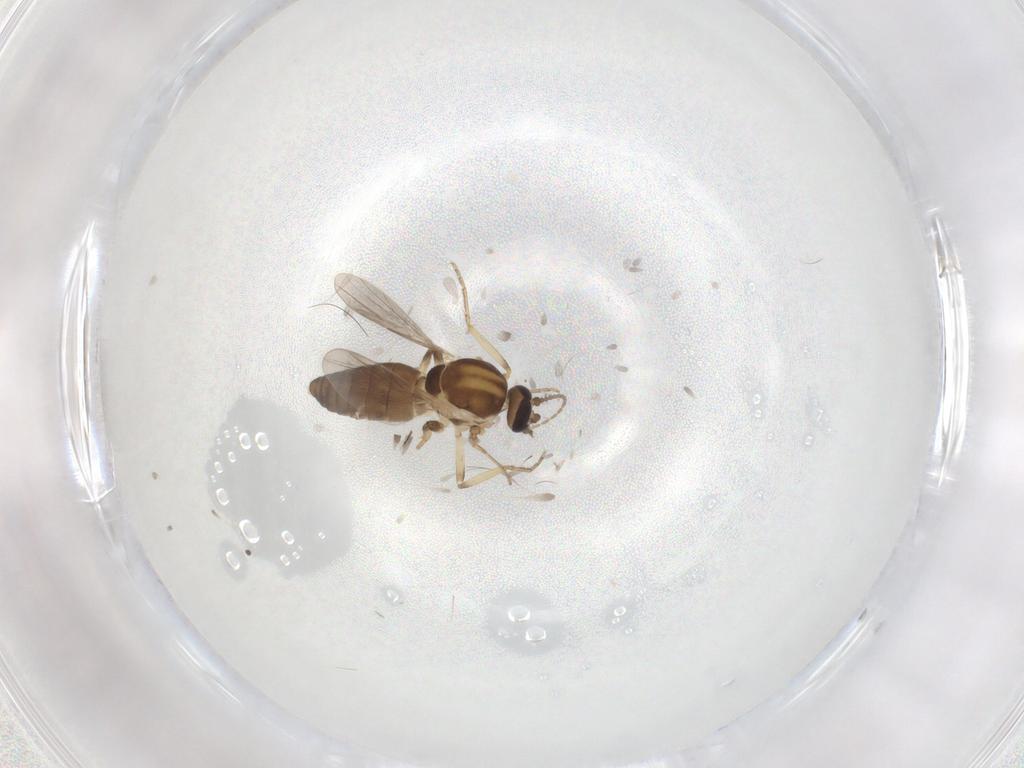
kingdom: Animalia
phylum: Arthropoda
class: Insecta
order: Diptera
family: Ceratopogonidae
